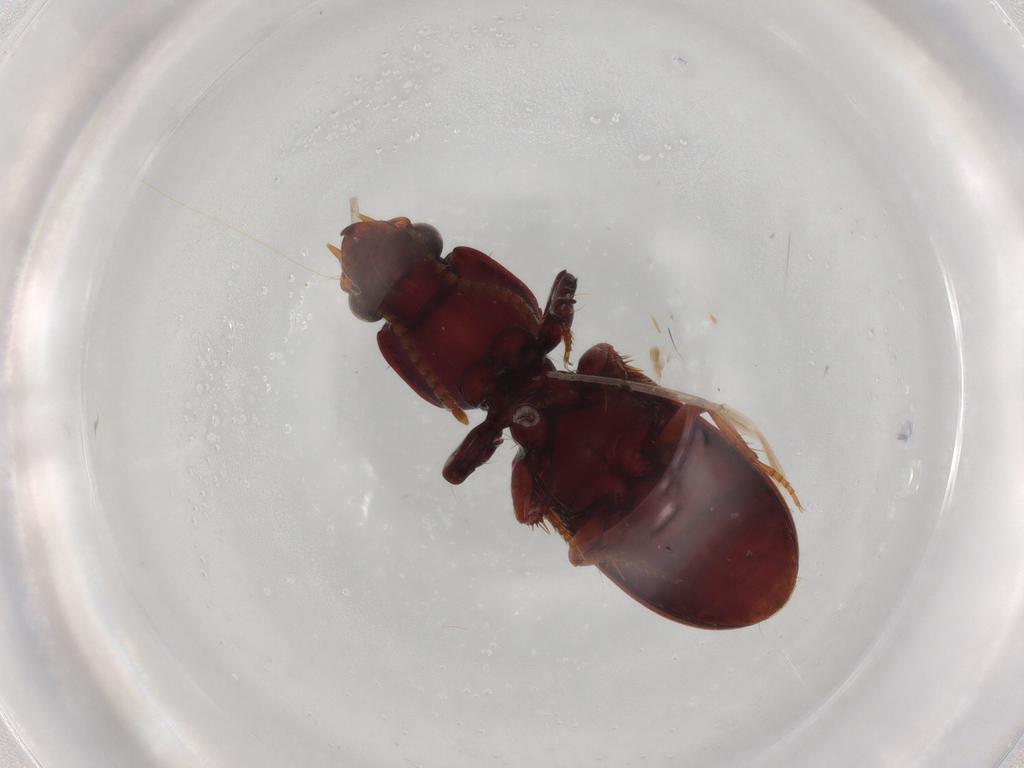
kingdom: Animalia
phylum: Arthropoda
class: Insecta
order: Coleoptera
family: Carabidae
